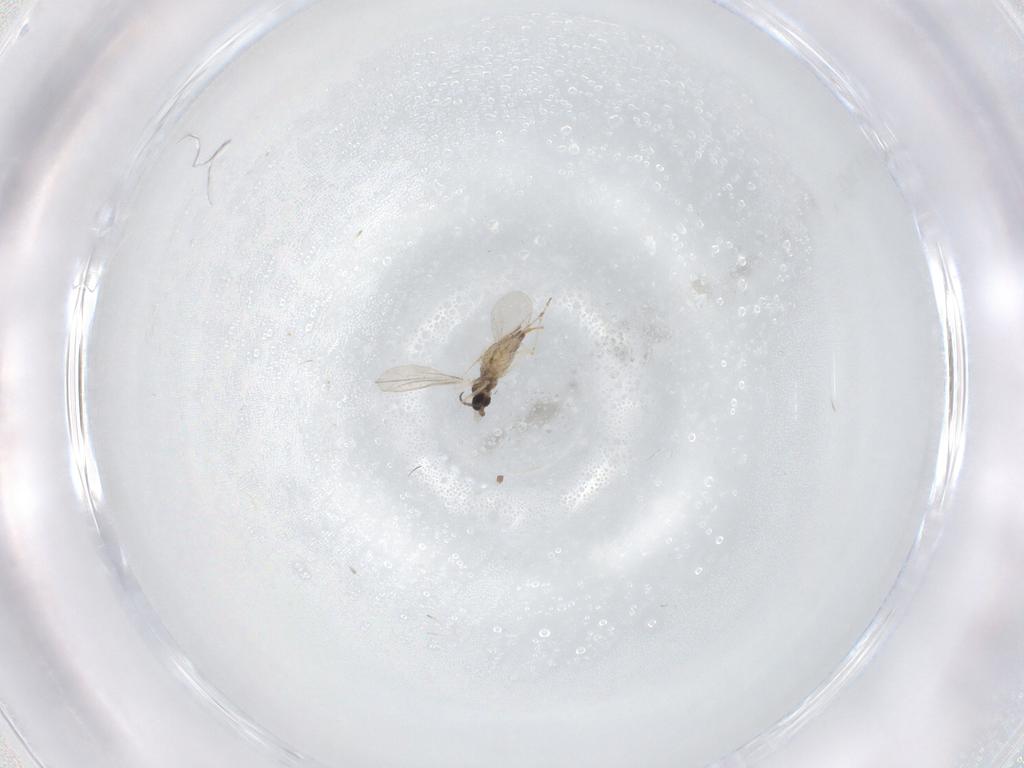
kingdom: Animalia
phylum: Arthropoda
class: Insecta
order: Diptera
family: Cecidomyiidae
